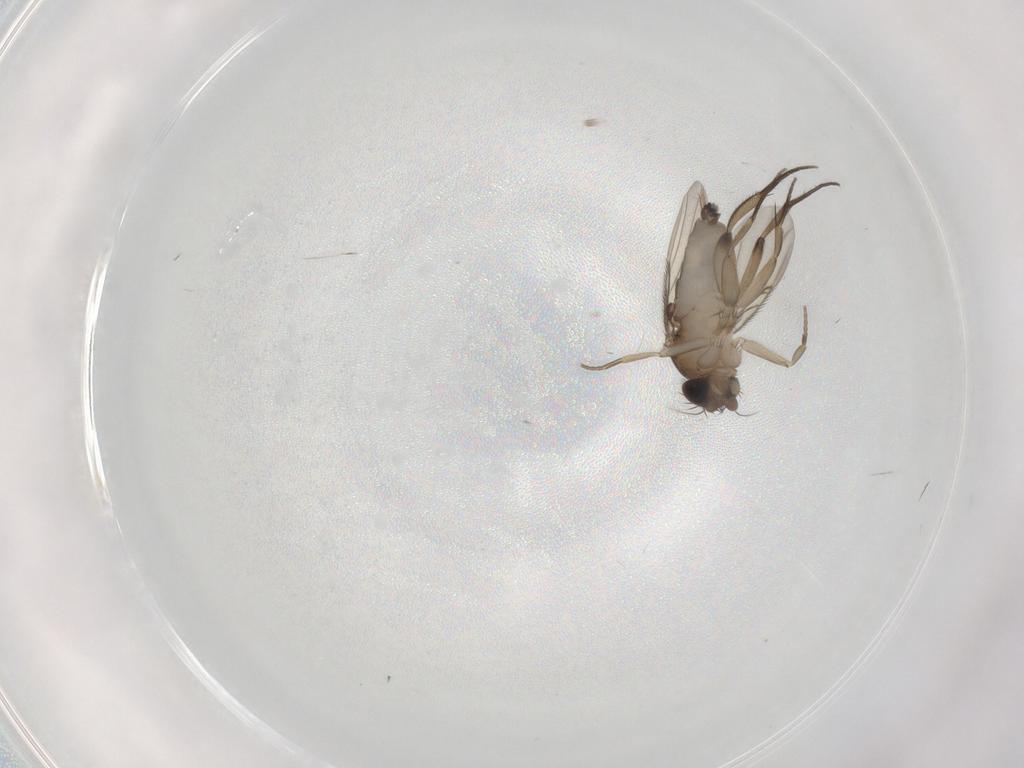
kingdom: Animalia
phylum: Arthropoda
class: Insecta
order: Diptera
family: Phoridae
